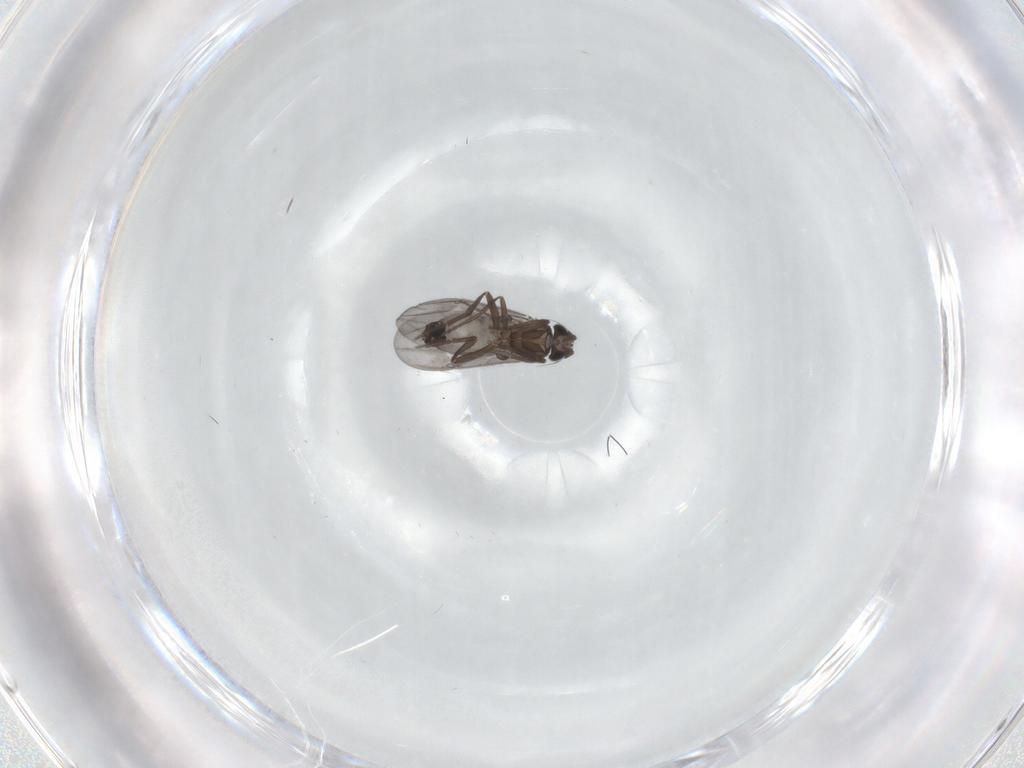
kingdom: Animalia
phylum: Arthropoda
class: Insecta
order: Diptera
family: Phoridae
